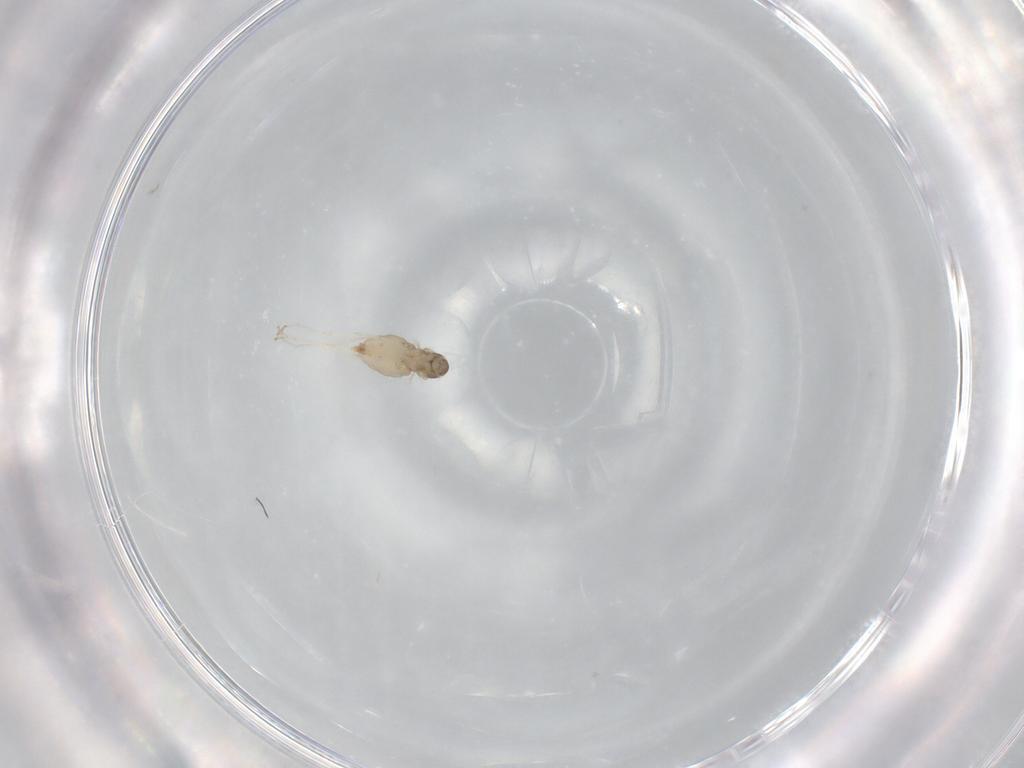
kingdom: Animalia
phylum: Arthropoda
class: Insecta
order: Diptera
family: Cecidomyiidae
